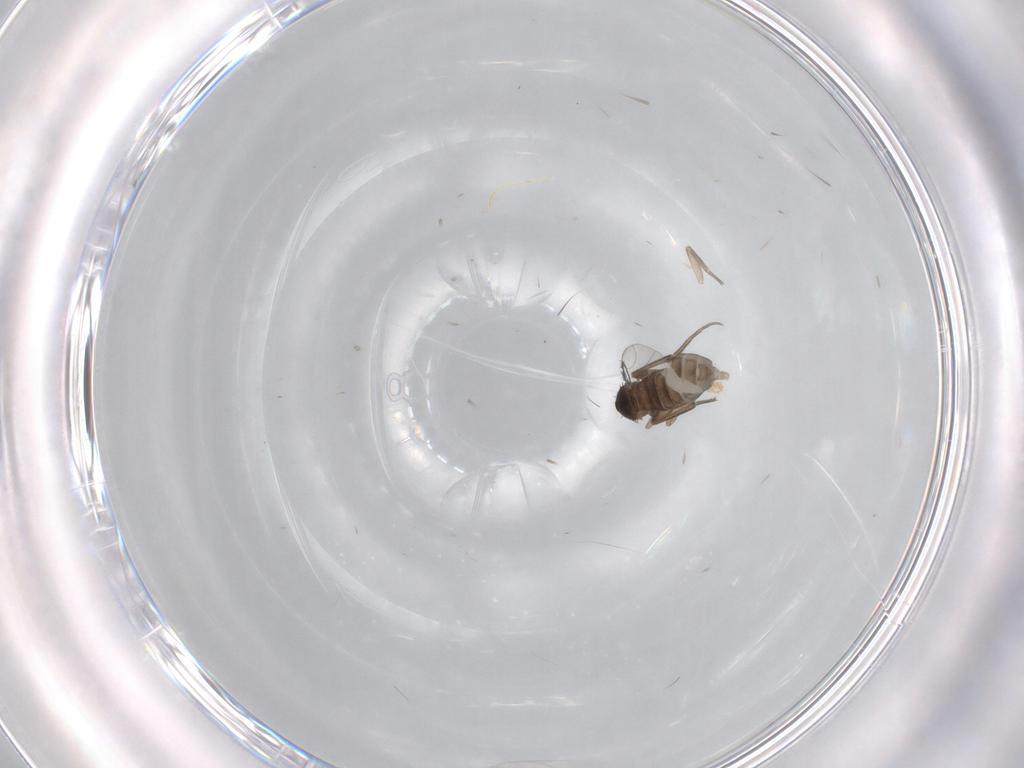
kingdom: Animalia
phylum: Arthropoda
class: Insecta
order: Diptera
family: Phoridae
